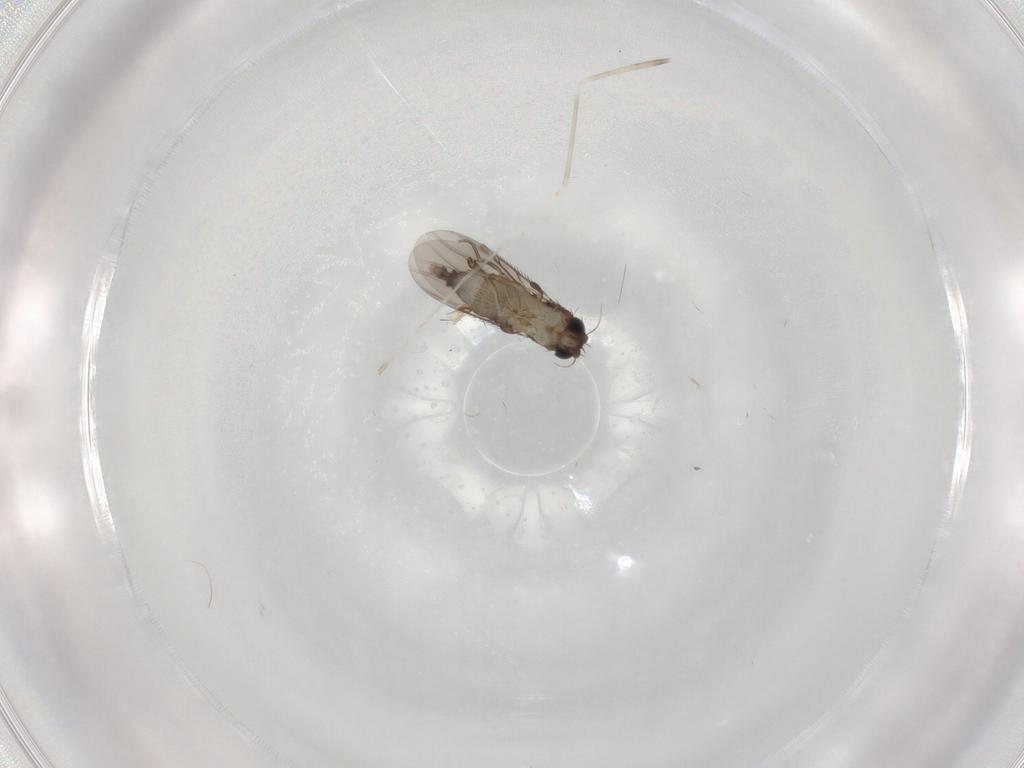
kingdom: Animalia
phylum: Arthropoda
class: Insecta
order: Diptera
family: Phoridae
